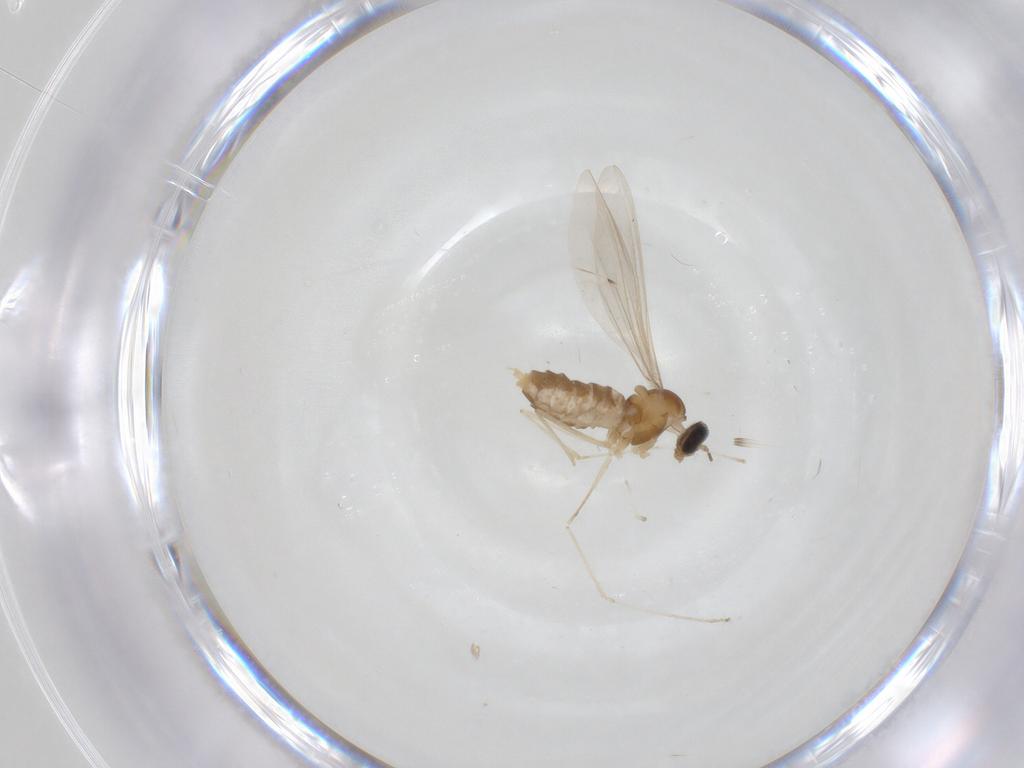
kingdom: Animalia
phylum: Arthropoda
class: Insecta
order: Diptera
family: Cecidomyiidae
